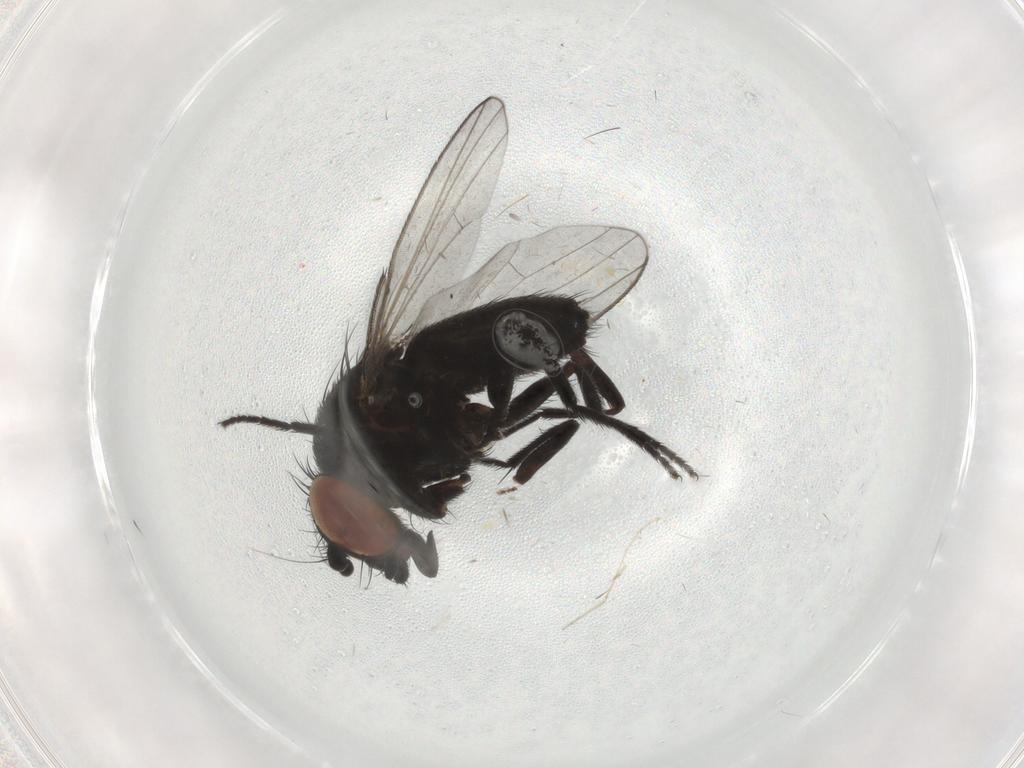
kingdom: Animalia
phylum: Arthropoda
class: Insecta
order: Diptera
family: Milichiidae
